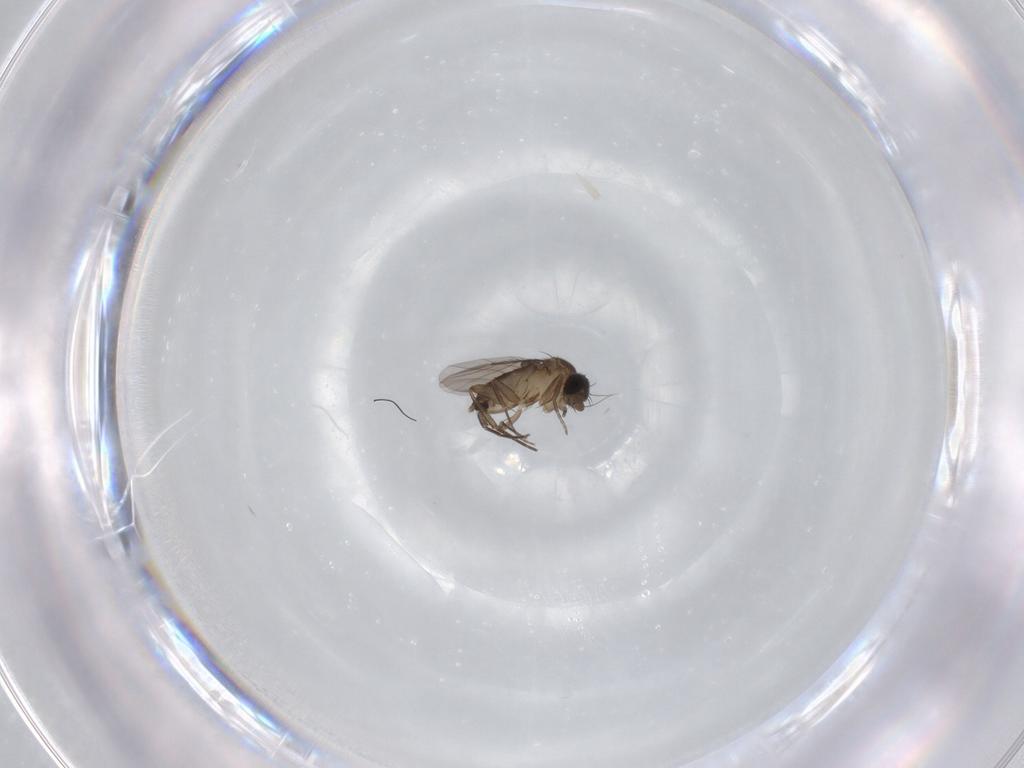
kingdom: Animalia
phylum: Arthropoda
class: Insecta
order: Diptera
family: Phoridae
